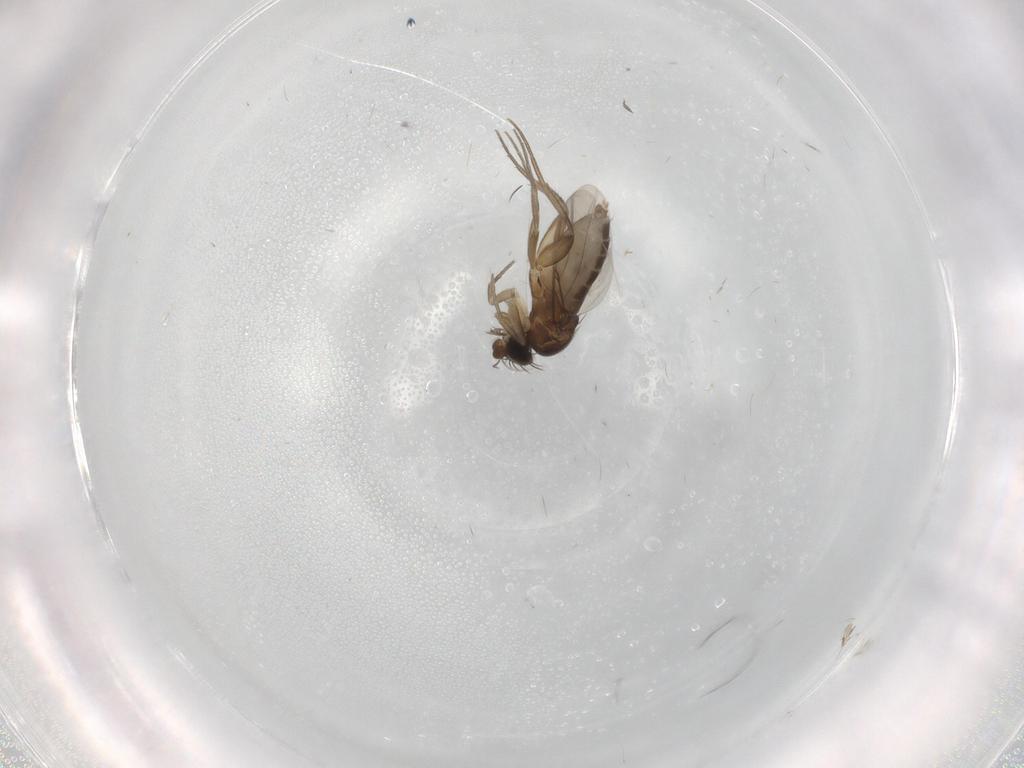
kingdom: Animalia
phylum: Arthropoda
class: Insecta
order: Diptera
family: Phoridae
